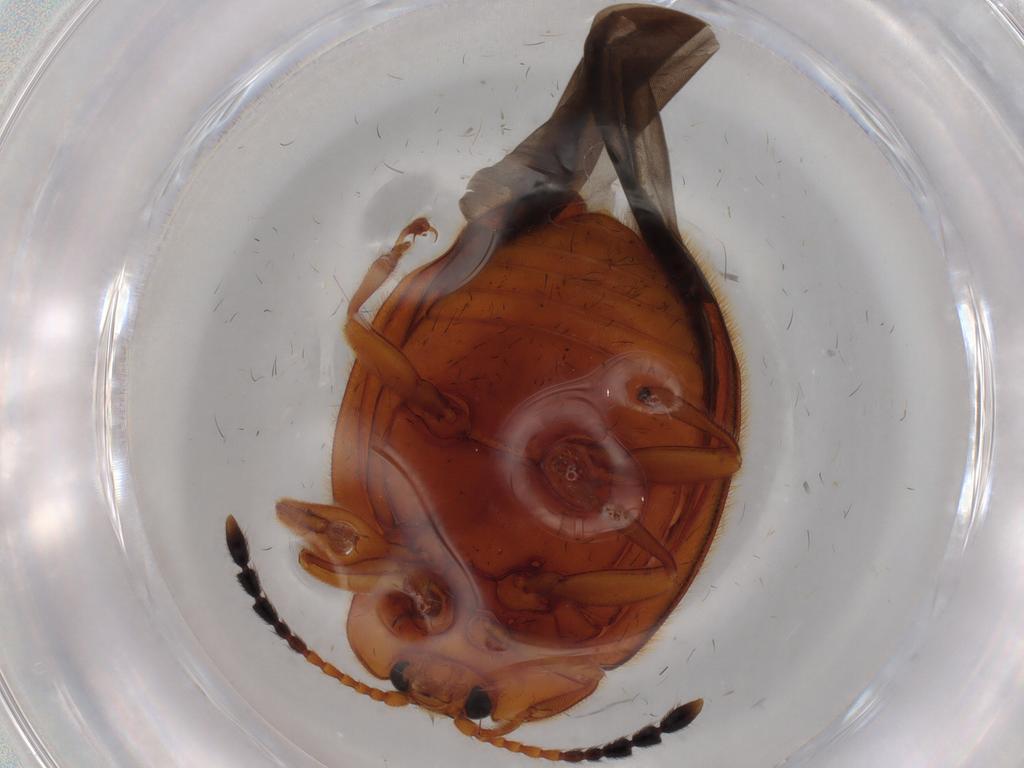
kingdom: Animalia
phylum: Arthropoda
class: Insecta
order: Coleoptera
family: Endomychidae
